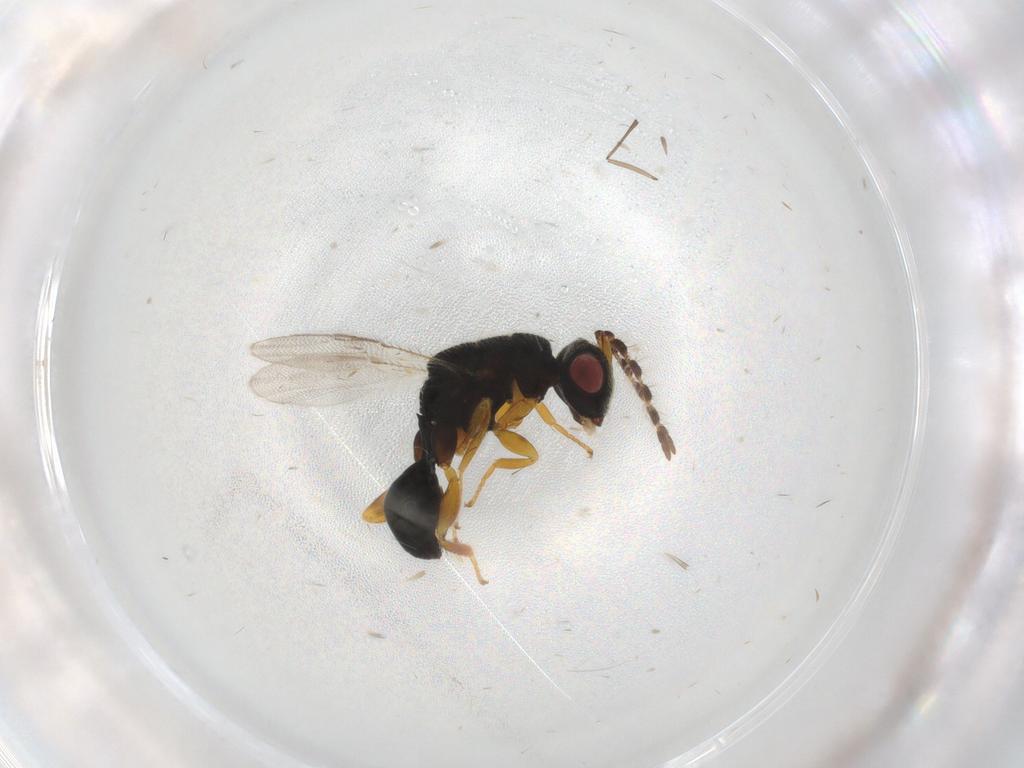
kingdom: Animalia
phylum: Arthropoda
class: Insecta
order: Hymenoptera
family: Eurytomidae
